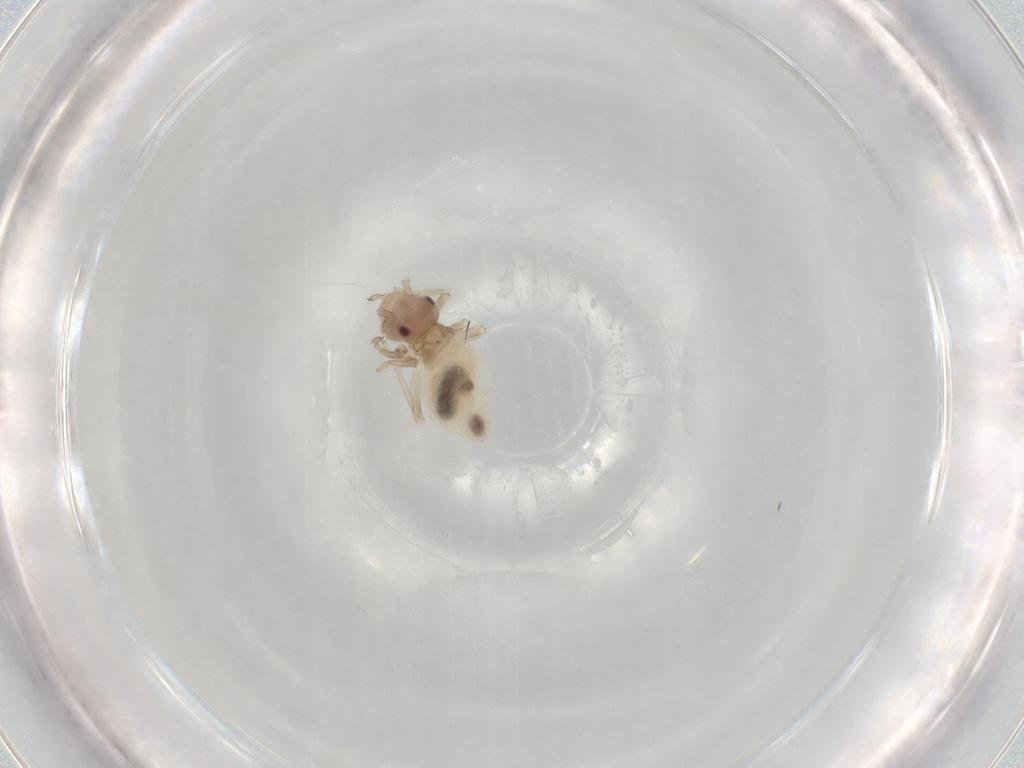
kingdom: Animalia
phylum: Arthropoda
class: Insecta
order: Psocodea
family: Stenopsocidae
